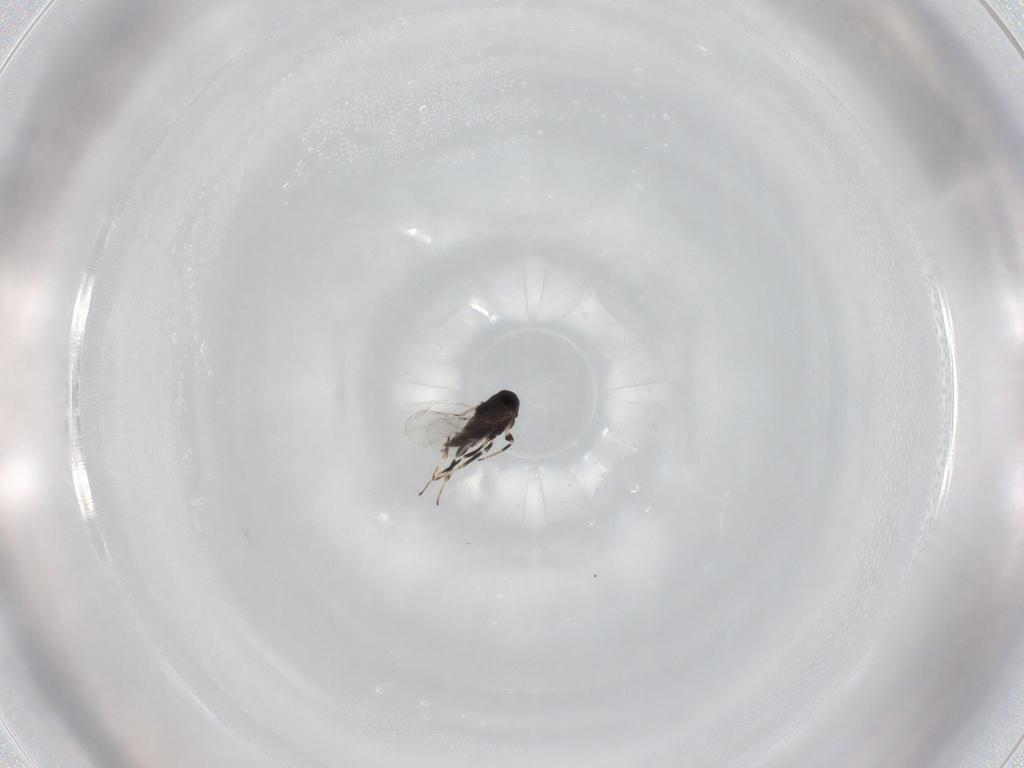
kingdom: Animalia
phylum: Arthropoda
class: Insecta
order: Hymenoptera
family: Encyrtidae
